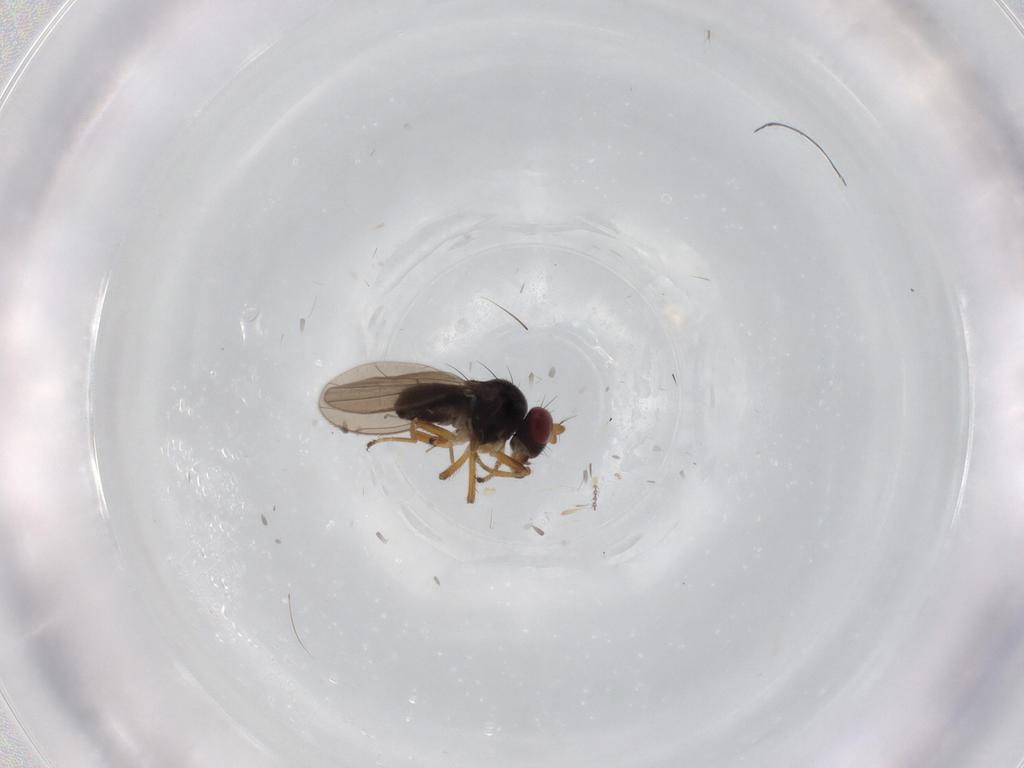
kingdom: Animalia
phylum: Arthropoda
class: Insecta
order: Diptera
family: Ephydridae
